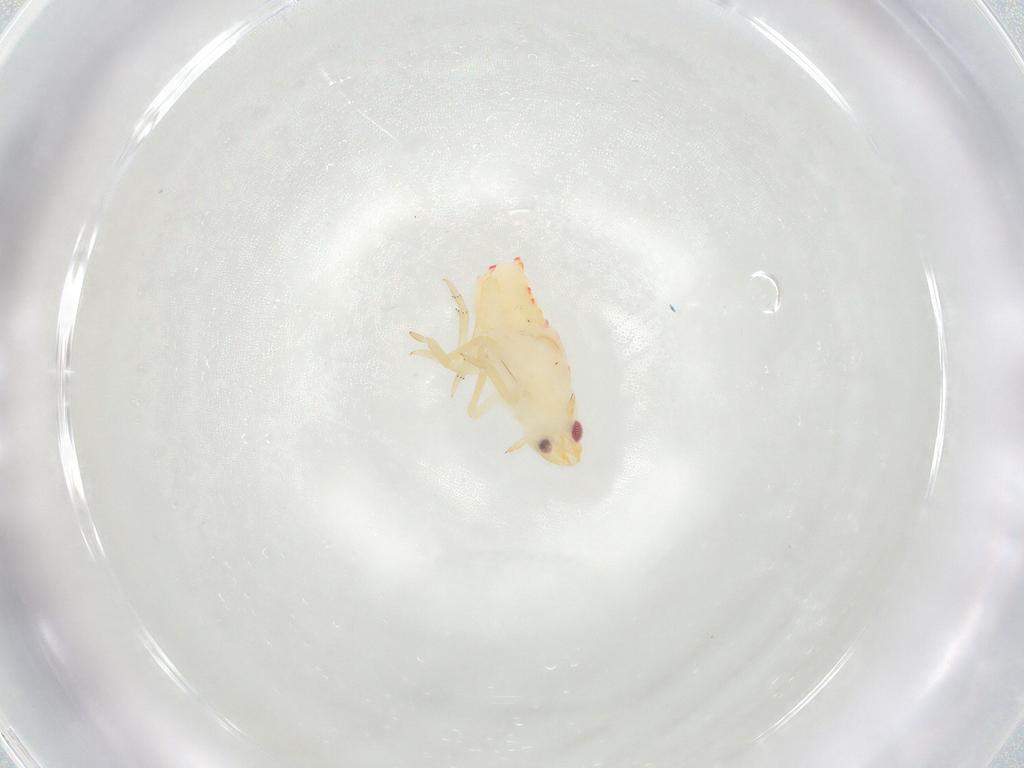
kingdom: Animalia
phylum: Arthropoda
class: Insecta
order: Hemiptera
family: Flatidae
